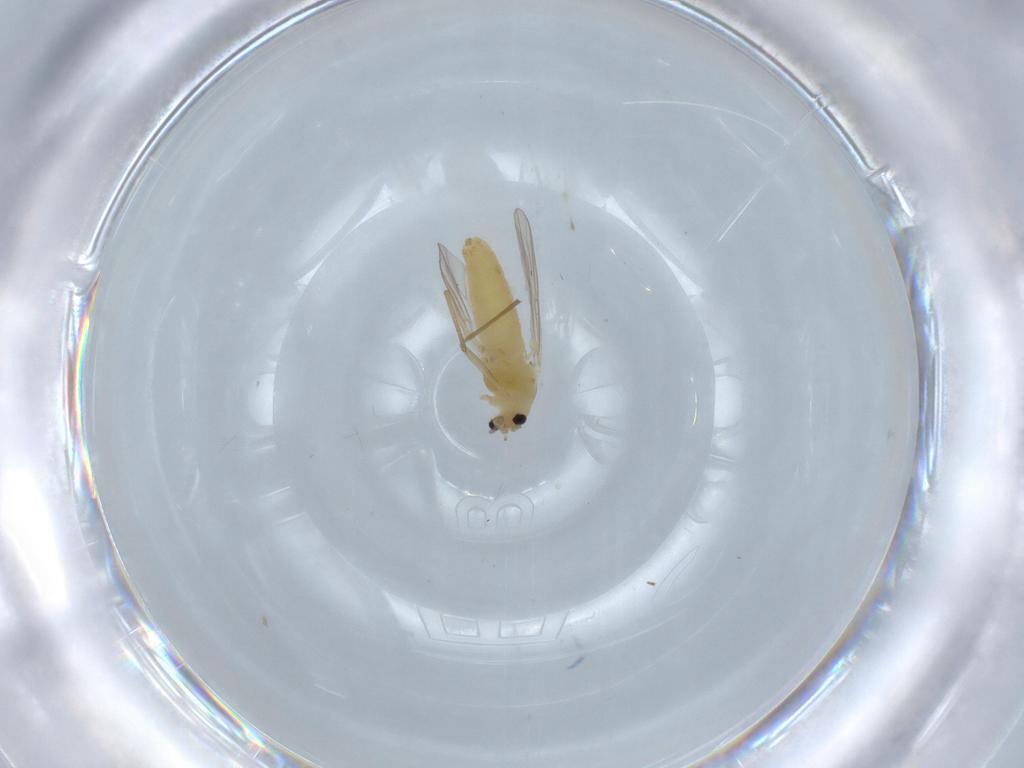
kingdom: Animalia
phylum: Arthropoda
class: Insecta
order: Diptera
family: Chironomidae
